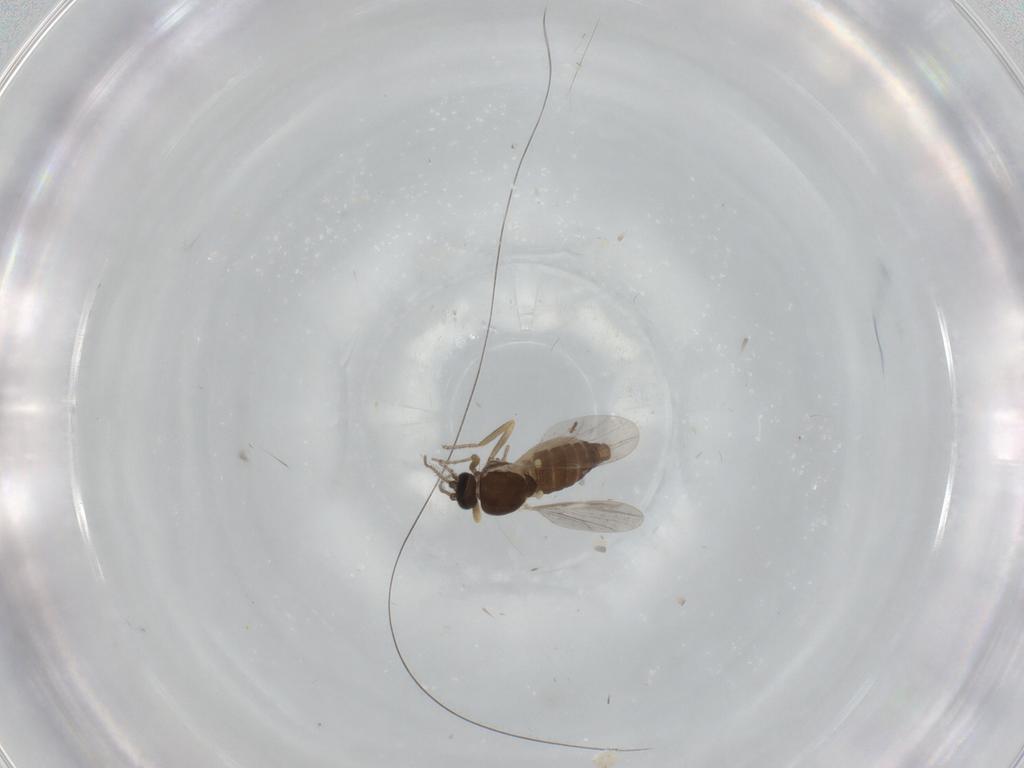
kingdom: Animalia
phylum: Arthropoda
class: Insecta
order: Diptera
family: Ceratopogonidae
